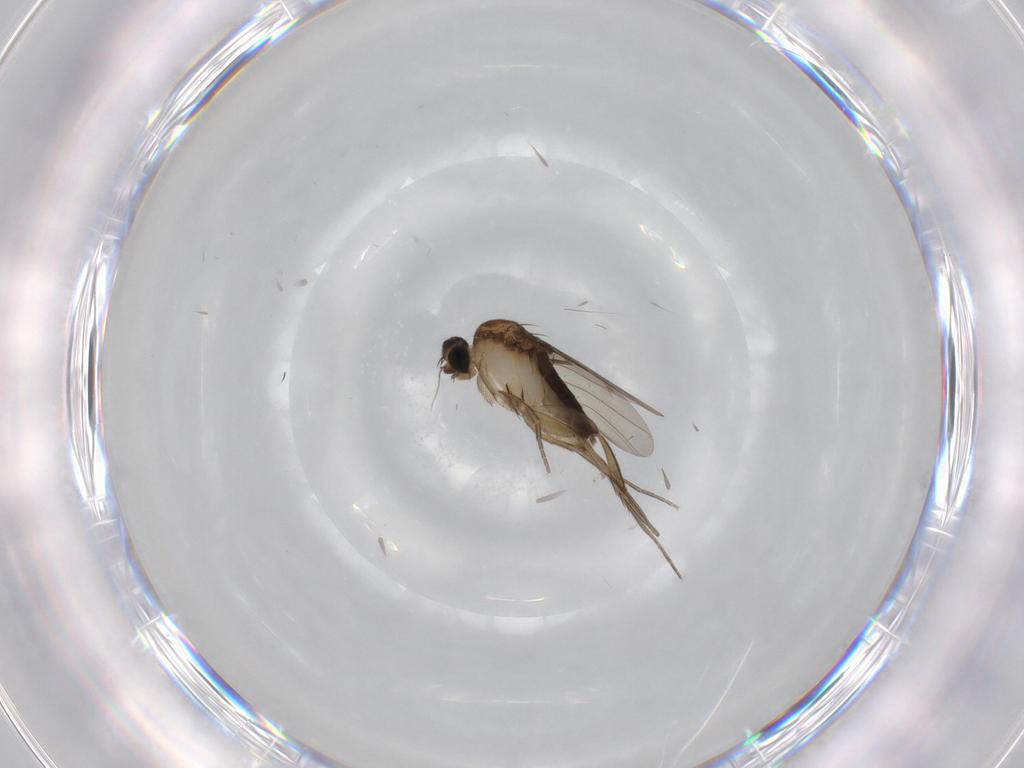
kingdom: Animalia
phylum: Arthropoda
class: Insecta
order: Diptera
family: Phoridae
